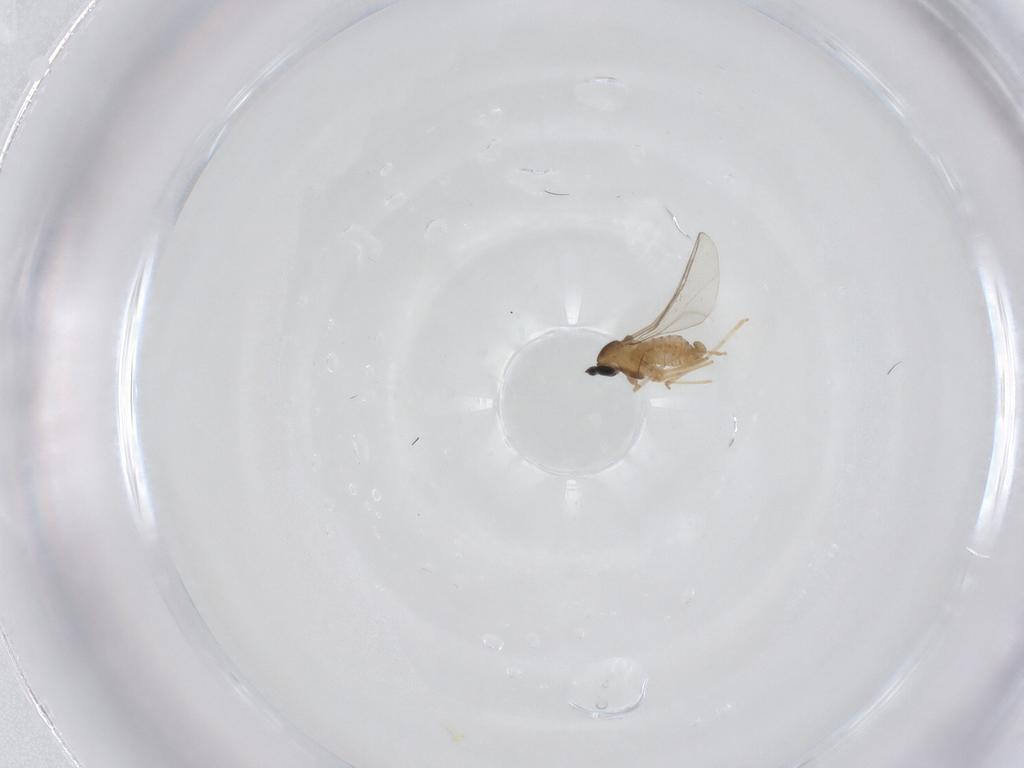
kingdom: Animalia
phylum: Arthropoda
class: Insecta
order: Diptera
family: Cecidomyiidae
